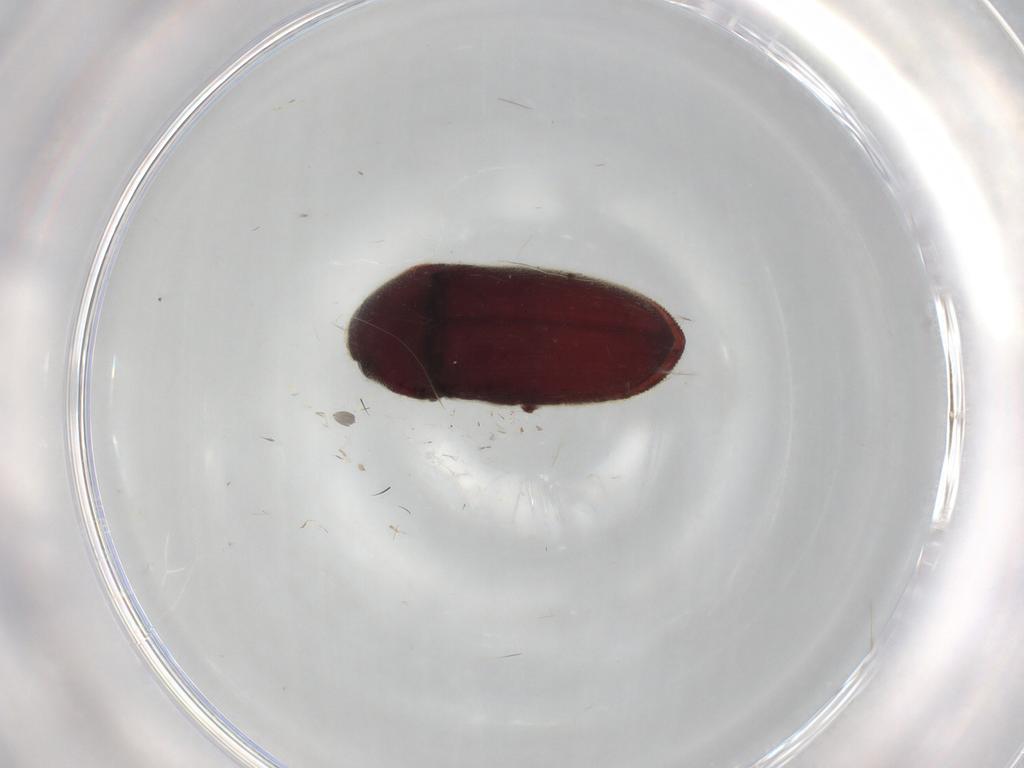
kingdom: Animalia
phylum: Arthropoda
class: Insecta
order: Coleoptera
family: Throscidae
